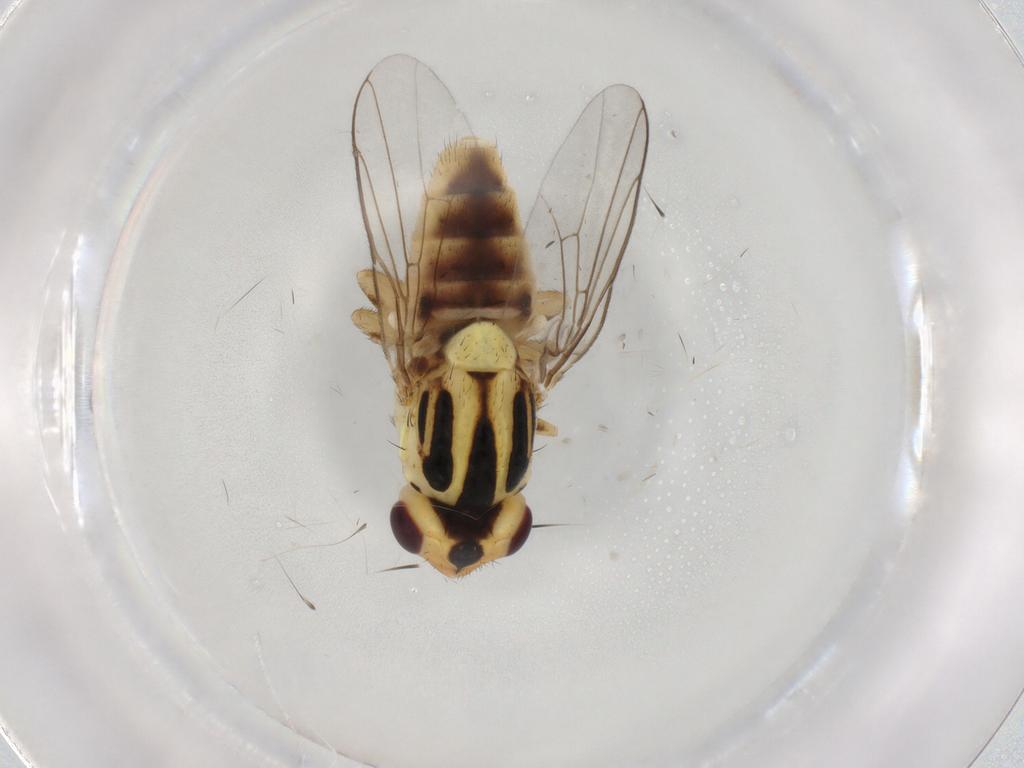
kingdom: Animalia
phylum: Arthropoda
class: Insecta
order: Diptera
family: Chloropidae
